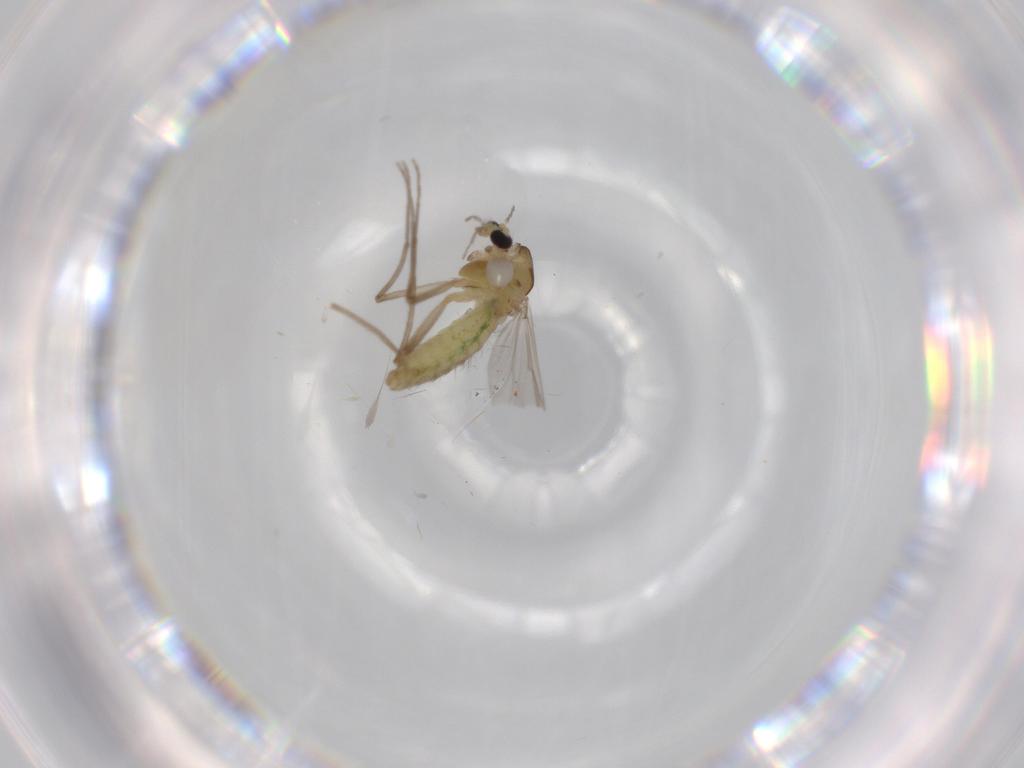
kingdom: Animalia
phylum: Arthropoda
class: Insecta
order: Diptera
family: Chironomidae
